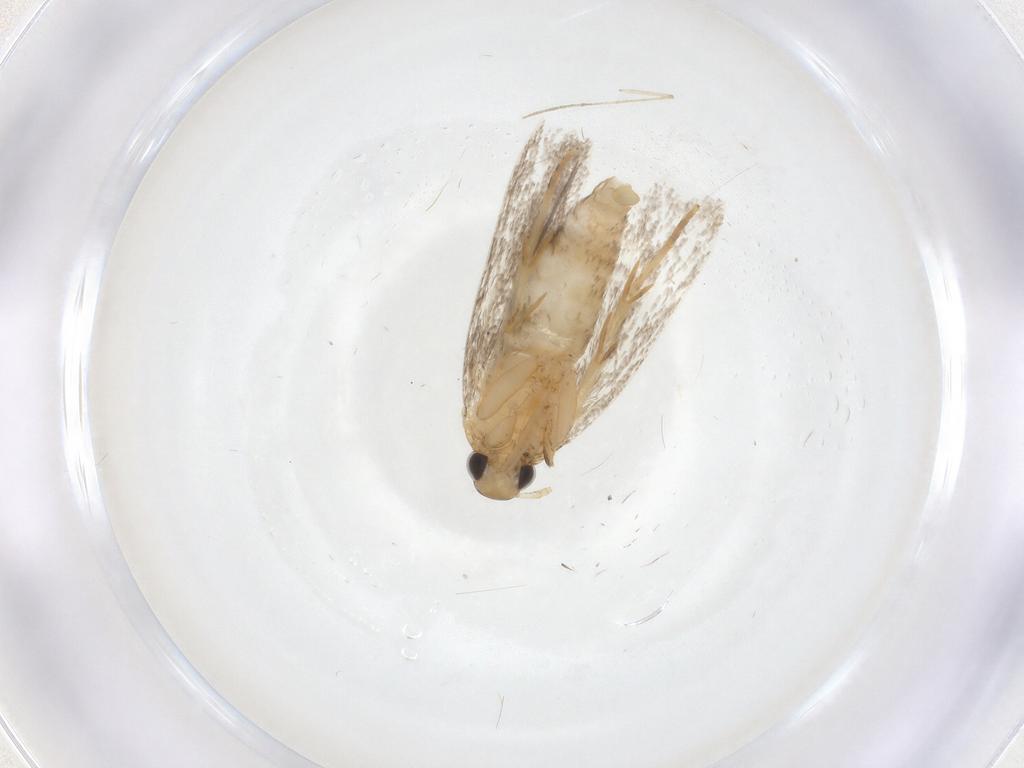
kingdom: Animalia
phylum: Arthropoda
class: Insecta
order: Lepidoptera
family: Oecophoridae
